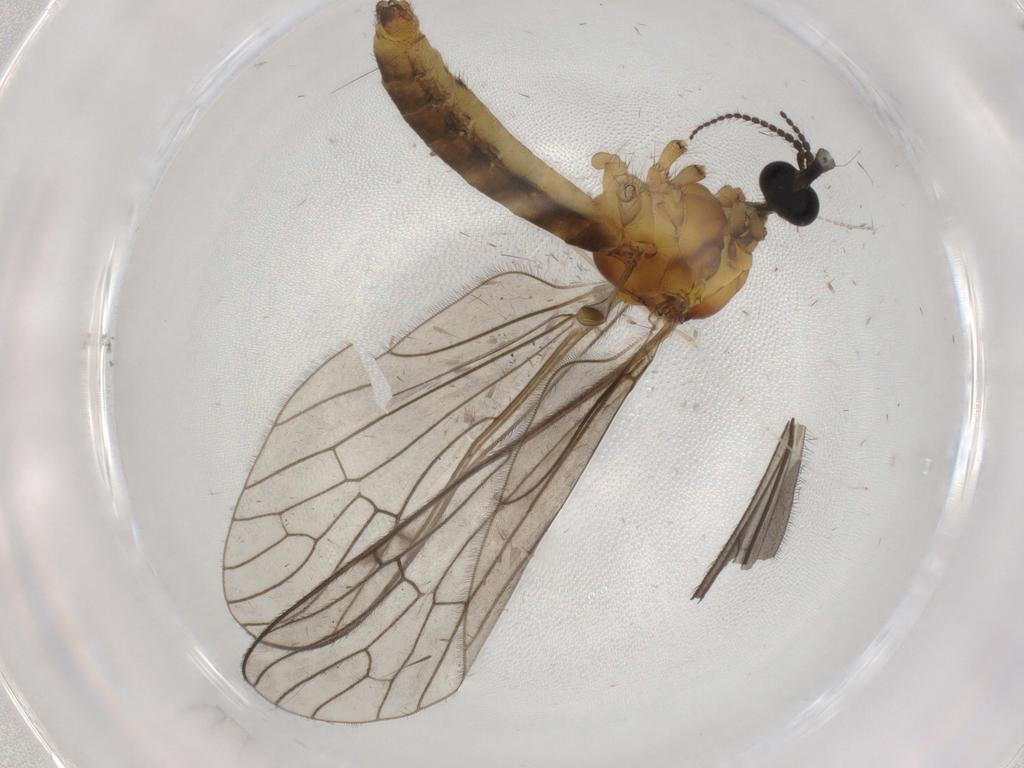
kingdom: Animalia
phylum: Arthropoda
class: Insecta
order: Diptera
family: Limoniidae
